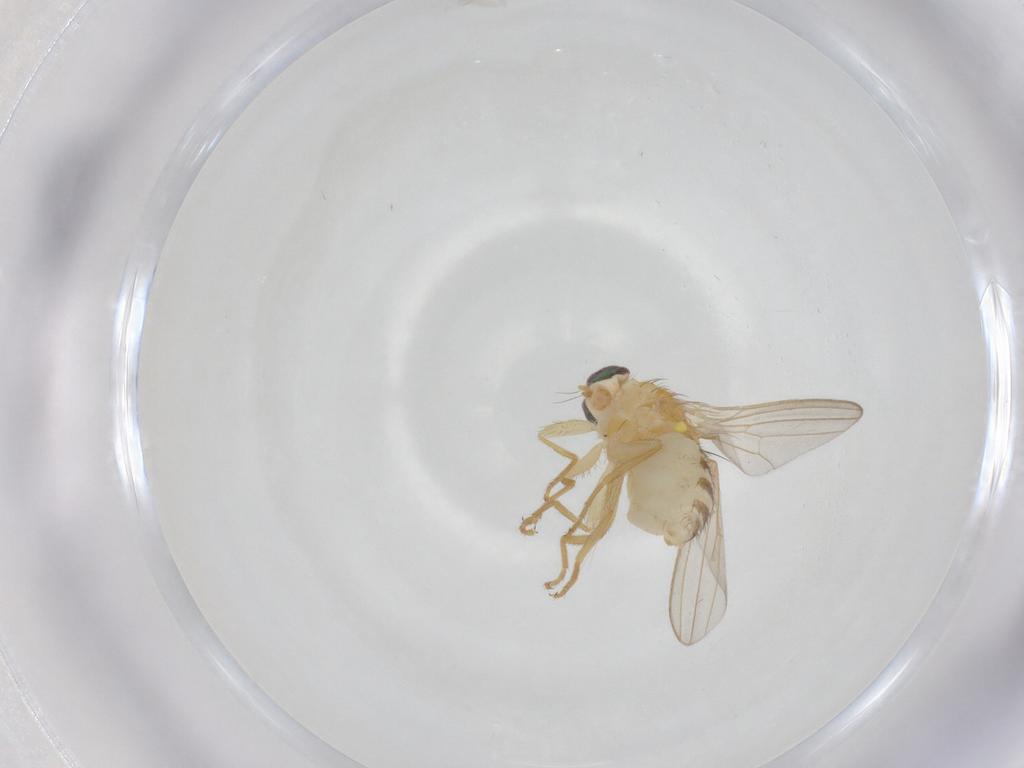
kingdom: Animalia
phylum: Arthropoda
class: Insecta
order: Diptera
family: Chyromyidae
